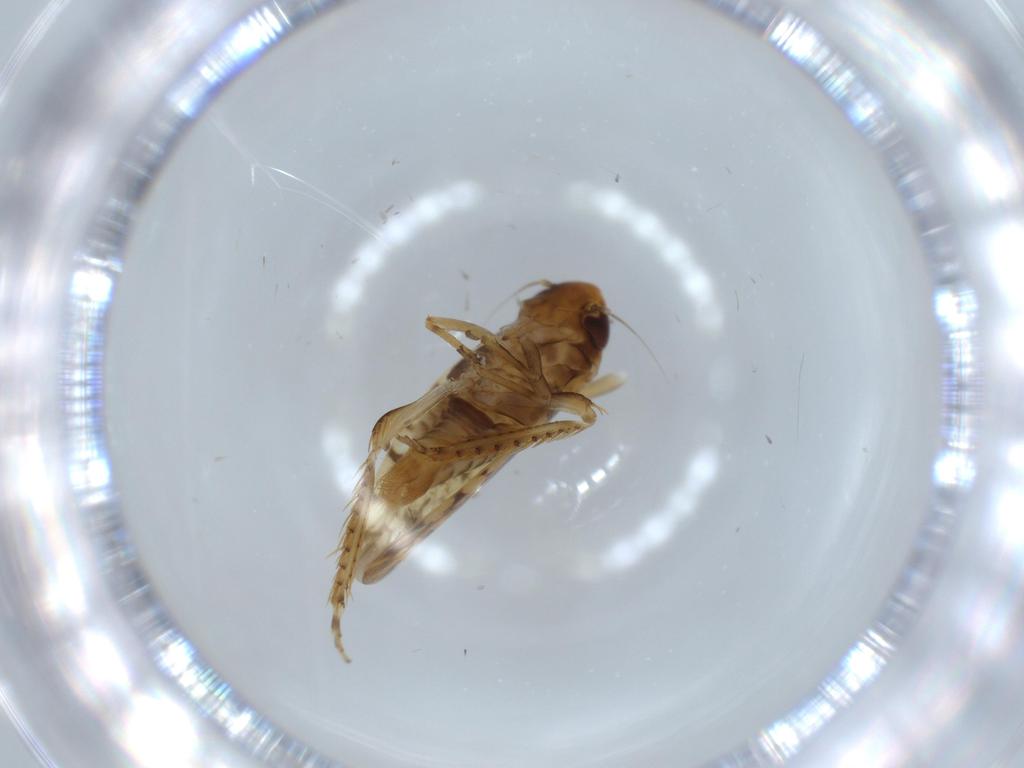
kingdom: Animalia
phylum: Arthropoda
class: Insecta
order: Hemiptera
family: Cicadellidae
